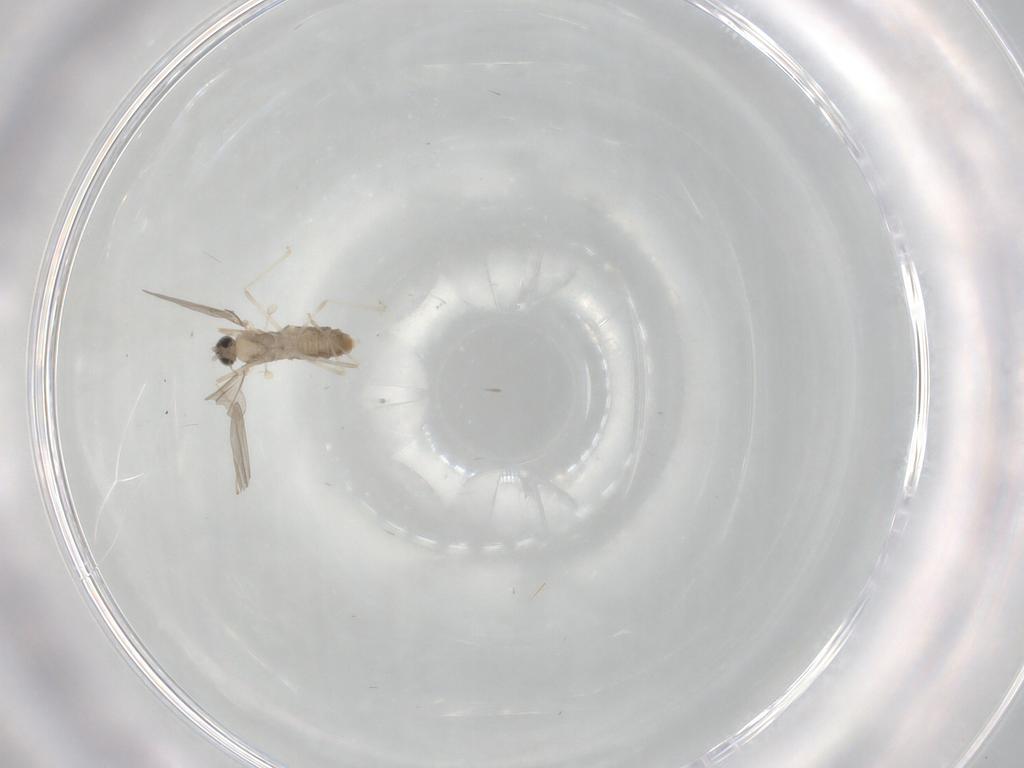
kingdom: Animalia
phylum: Arthropoda
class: Insecta
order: Diptera
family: Cecidomyiidae
